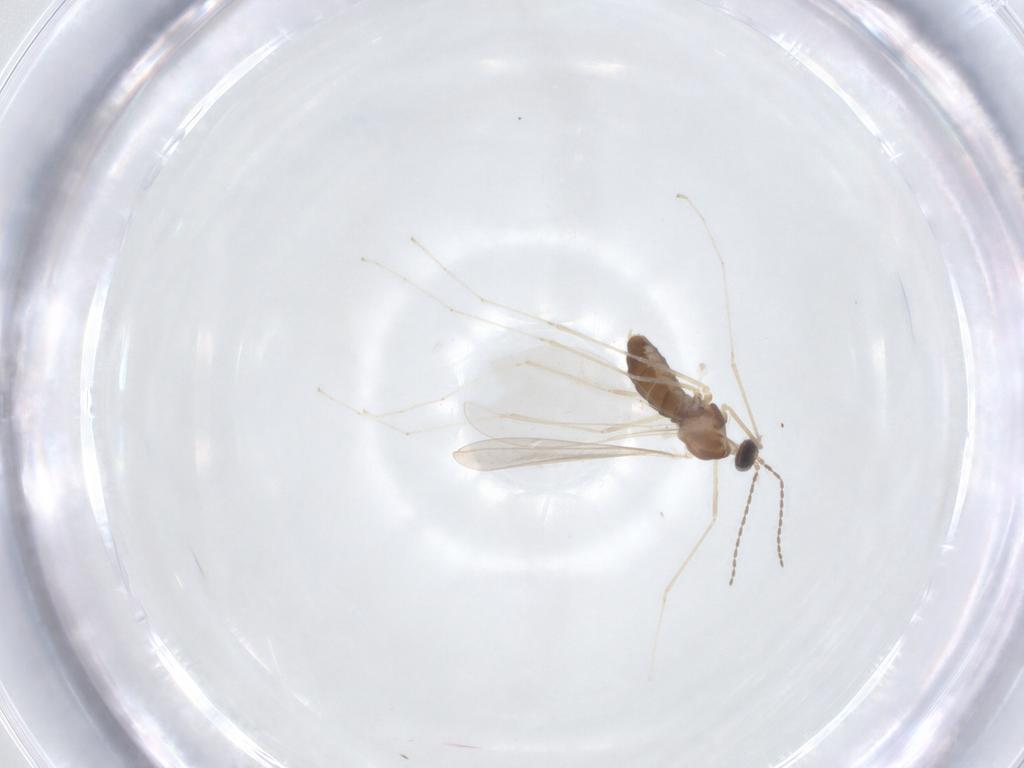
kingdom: Animalia
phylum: Arthropoda
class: Insecta
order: Diptera
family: Cecidomyiidae
